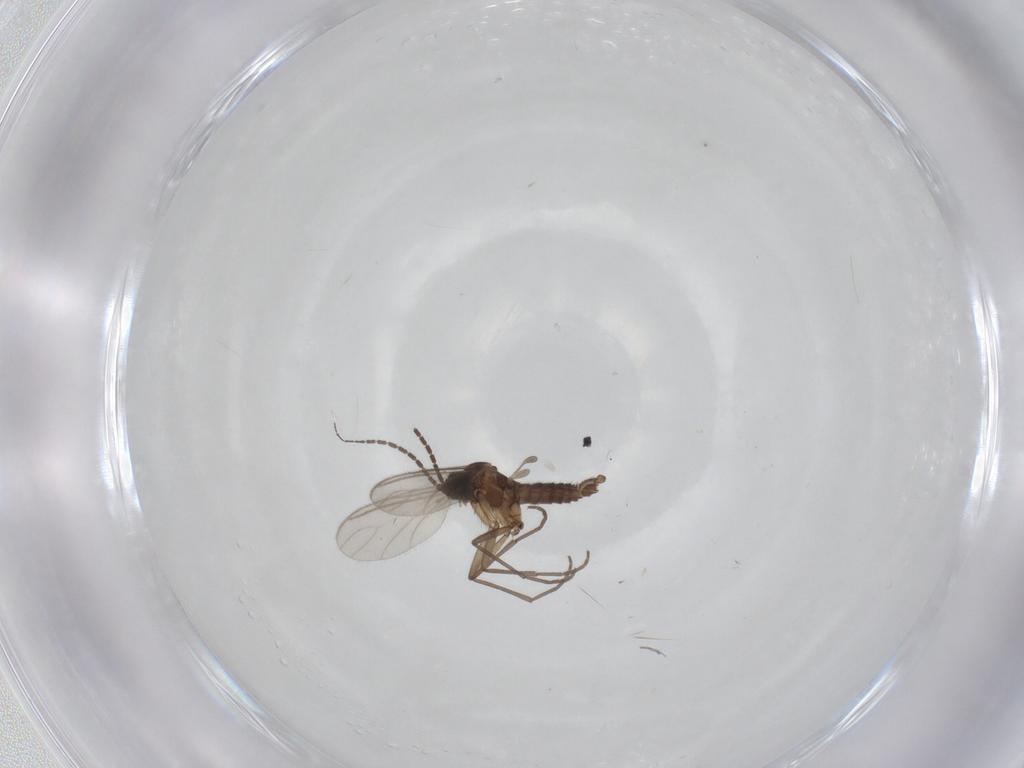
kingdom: Animalia
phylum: Arthropoda
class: Insecta
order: Diptera
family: Sciaridae
